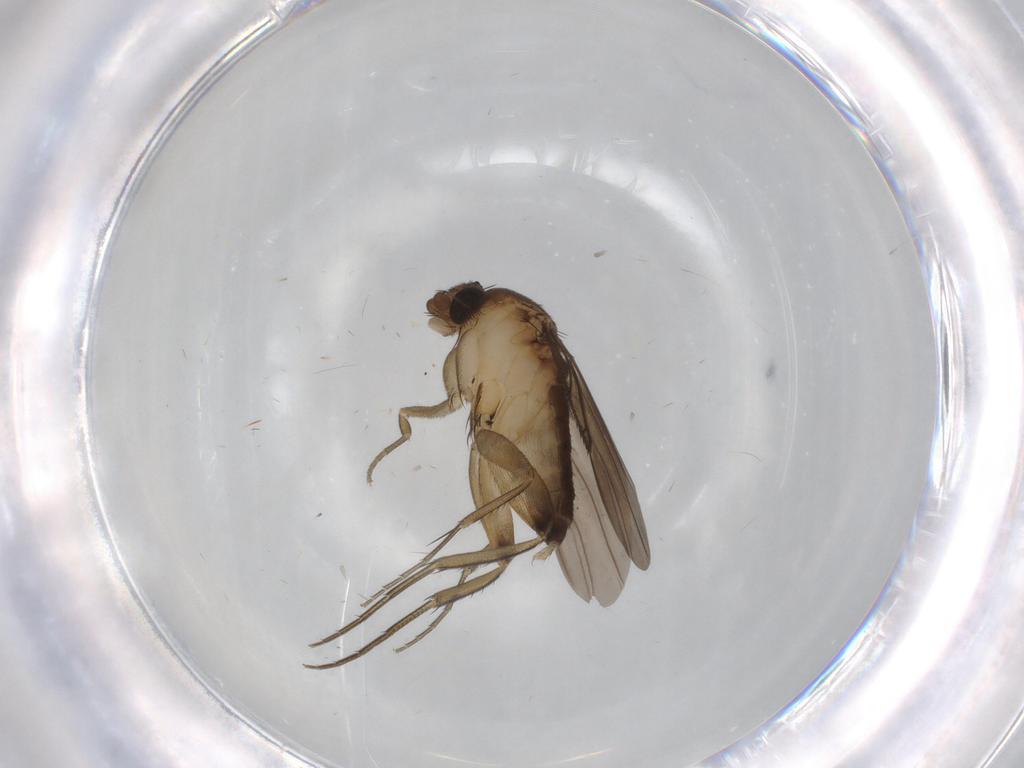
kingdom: Animalia
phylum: Arthropoda
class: Insecta
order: Diptera
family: Phoridae
